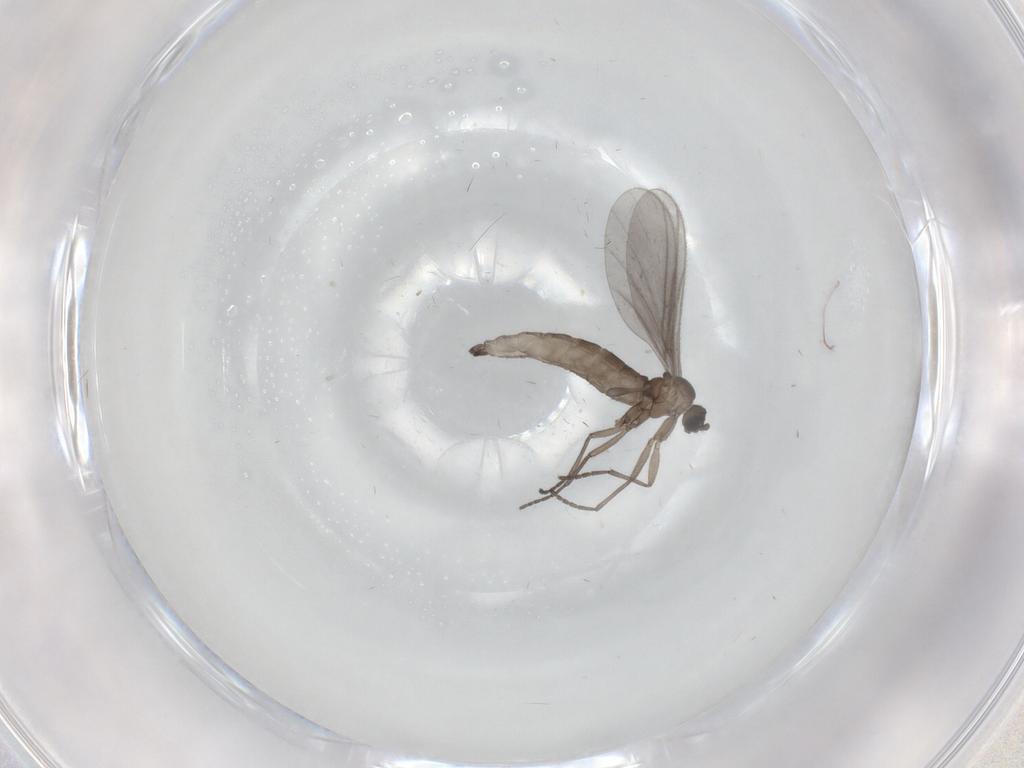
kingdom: Animalia
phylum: Arthropoda
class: Insecta
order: Diptera
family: Sciaridae
